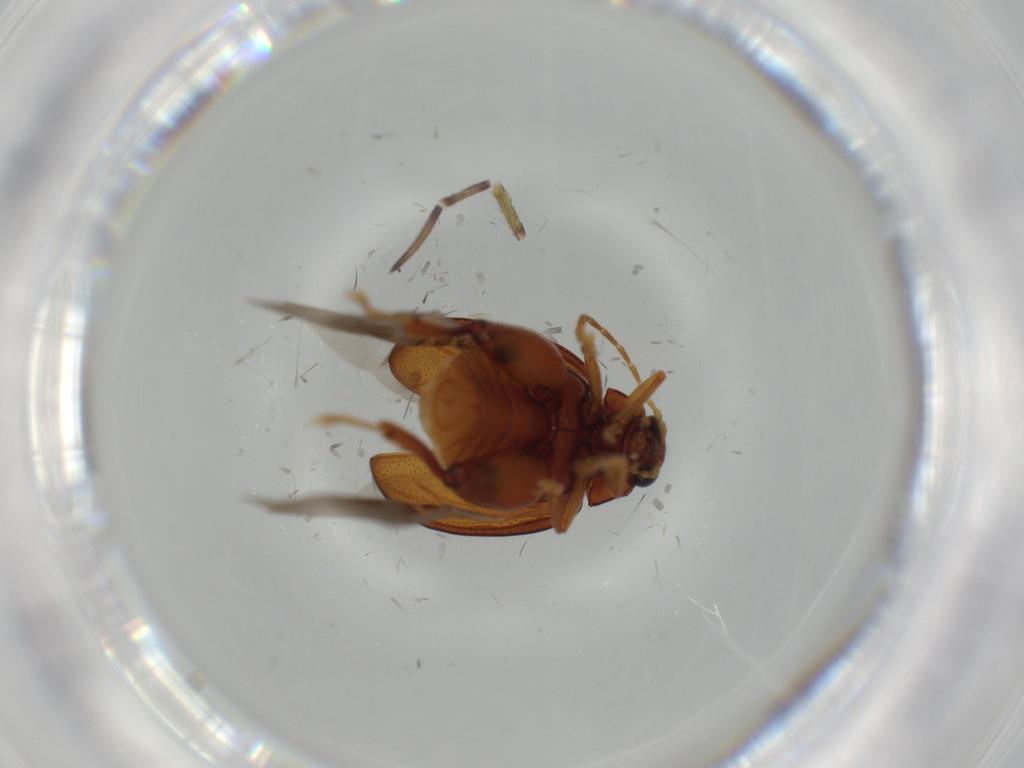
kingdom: Animalia
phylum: Arthropoda
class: Insecta
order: Coleoptera
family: Chrysomelidae
